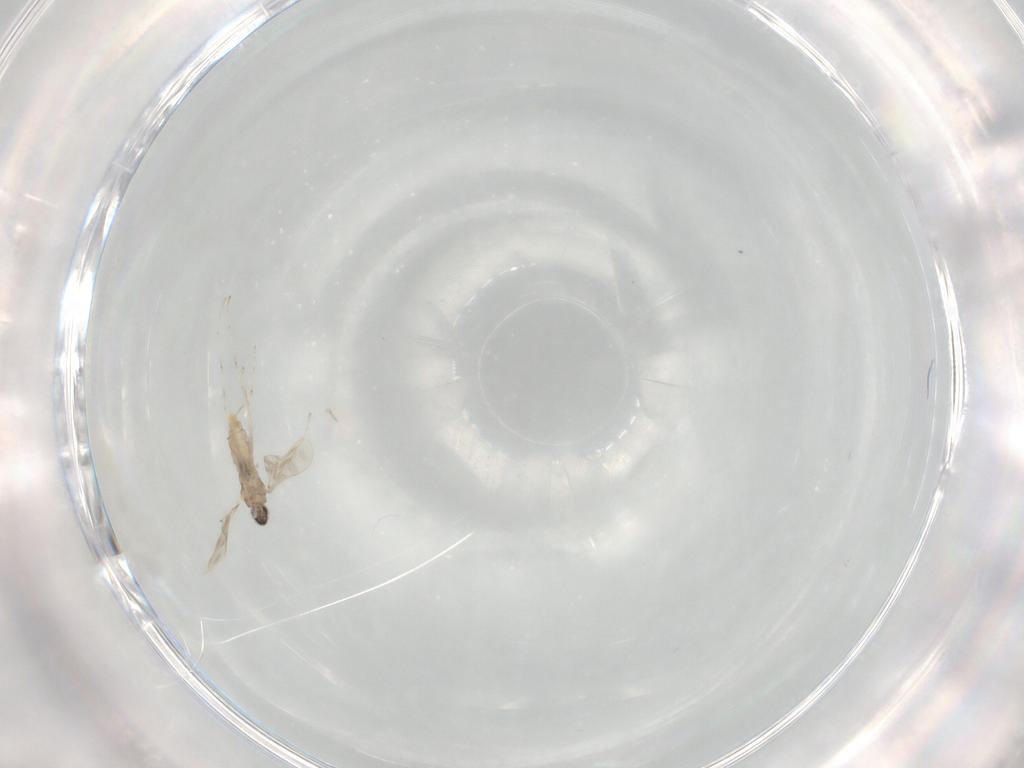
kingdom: Animalia
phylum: Arthropoda
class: Insecta
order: Diptera
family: Cecidomyiidae
